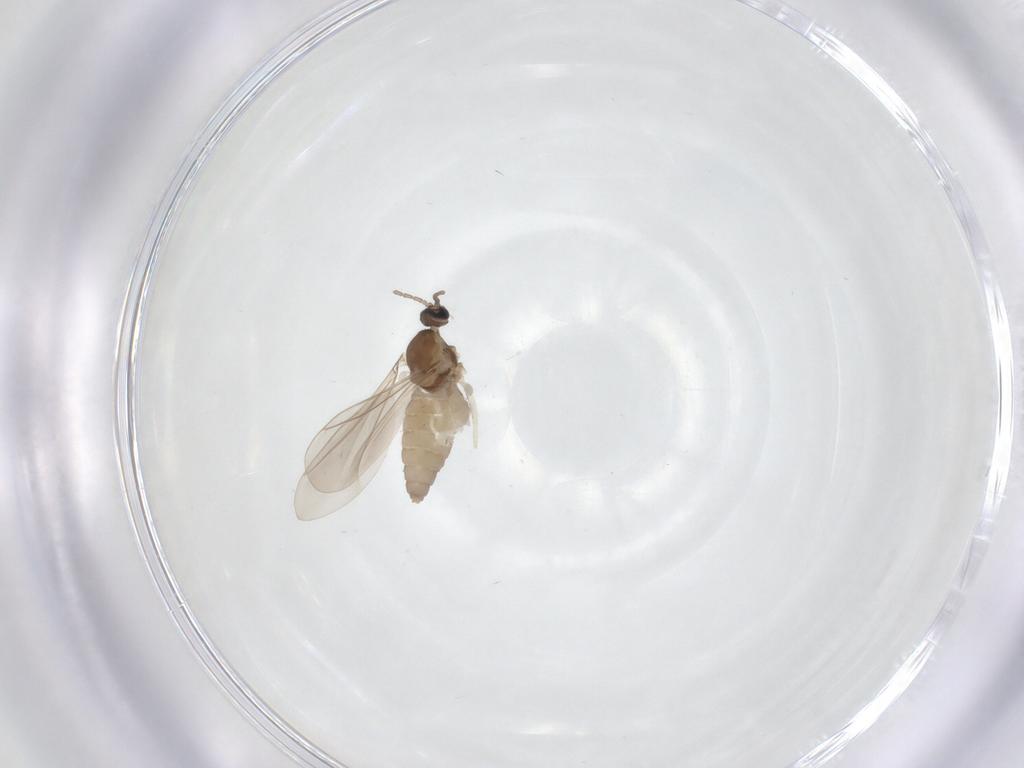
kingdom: Animalia
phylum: Arthropoda
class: Insecta
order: Diptera
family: Cecidomyiidae
